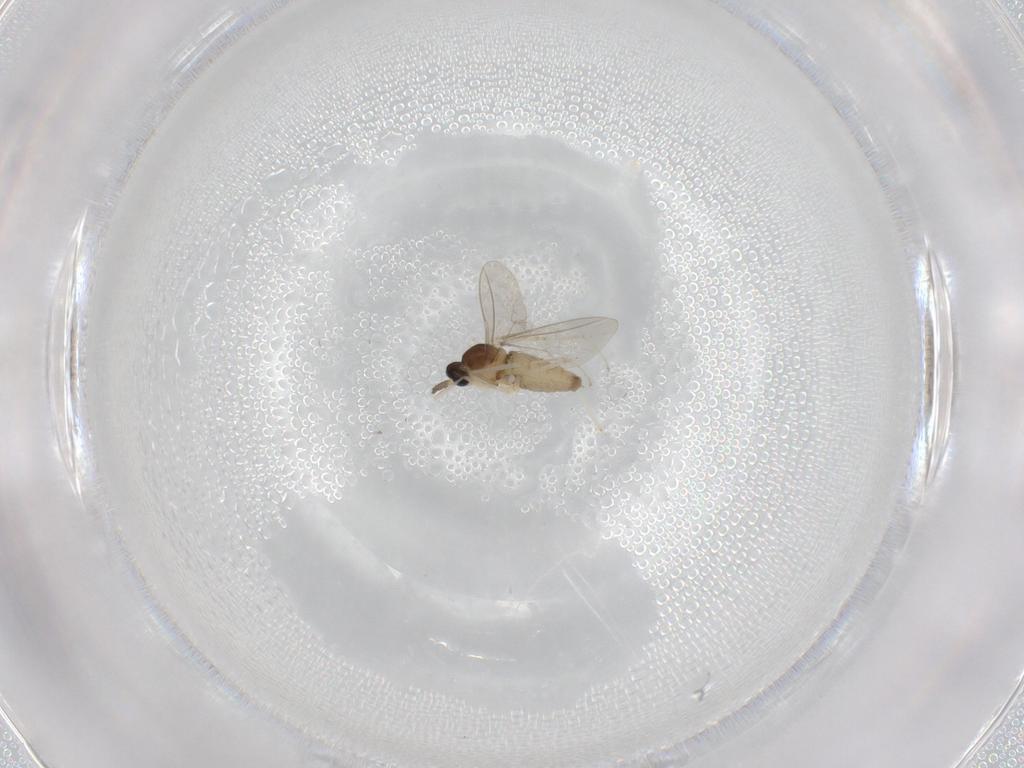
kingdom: Animalia
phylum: Arthropoda
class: Insecta
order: Diptera
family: Cecidomyiidae
